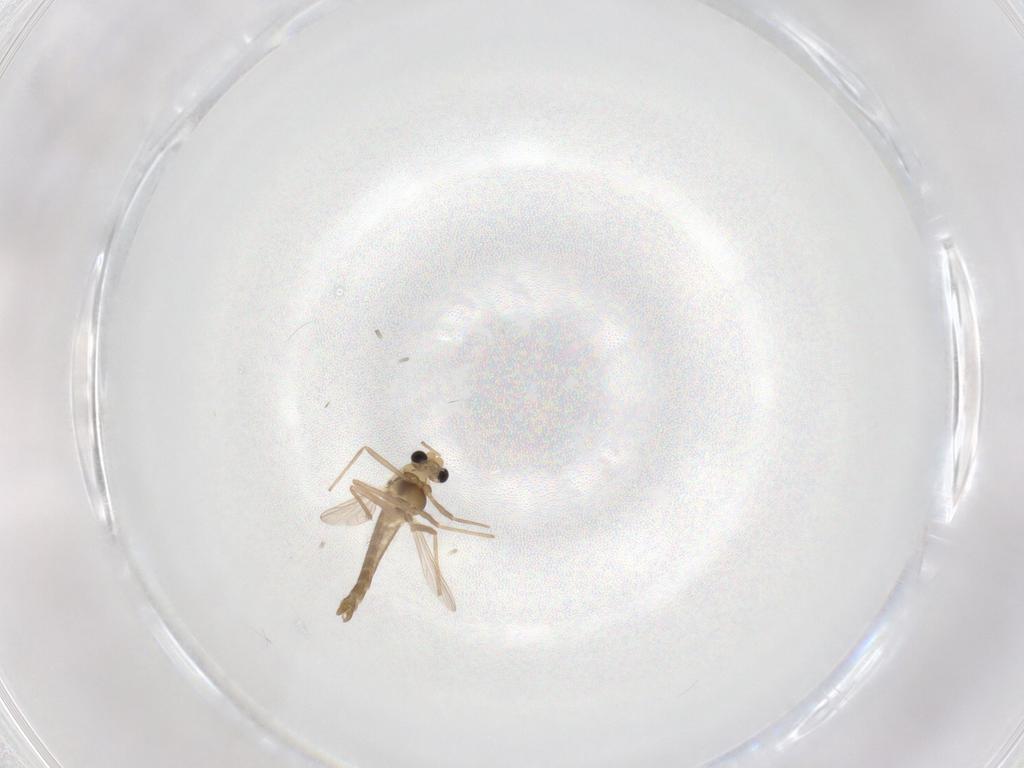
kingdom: Animalia
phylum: Arthropoda
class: Insecta
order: Diptera
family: Chironomidae
